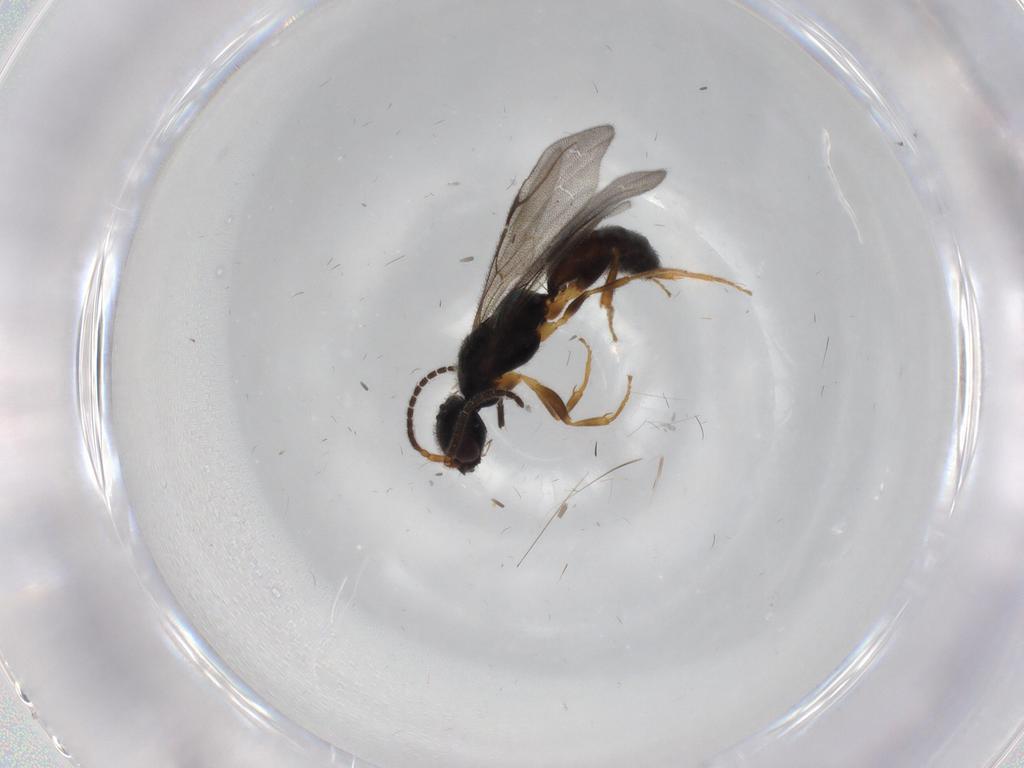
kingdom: Animalia
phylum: Arthropoda
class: Insecta
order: Hymenoptera
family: Bethylidae
